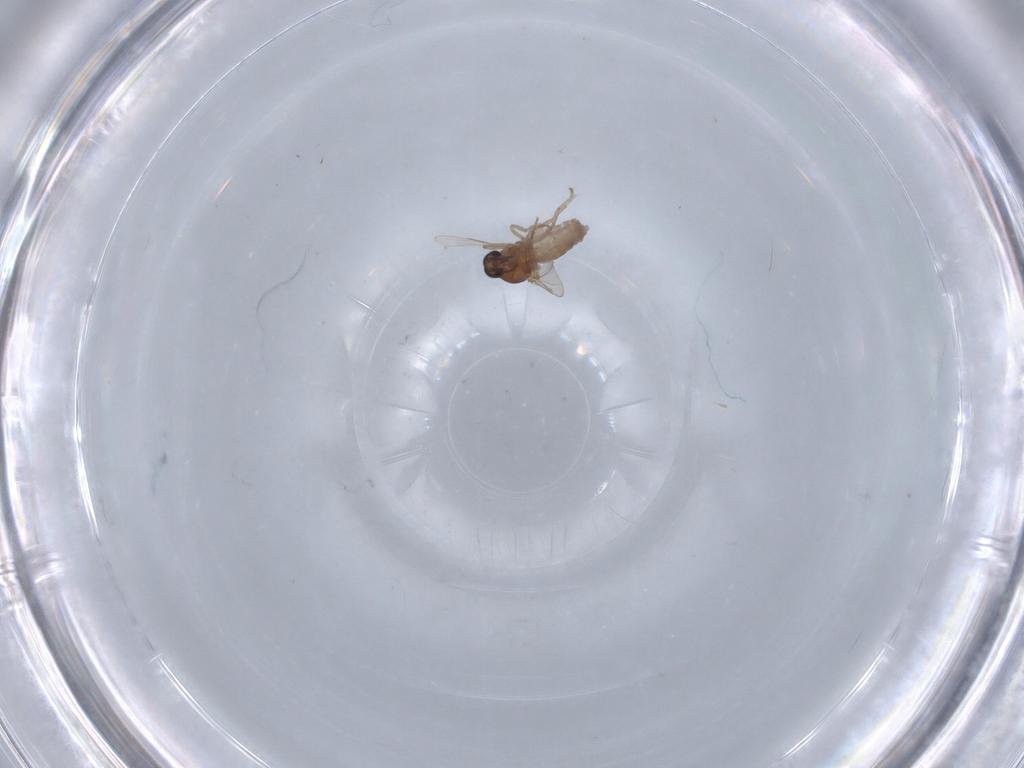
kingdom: Animalia
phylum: Arthropoda
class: Insecta
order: Diptera
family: Ceratopogonidae
